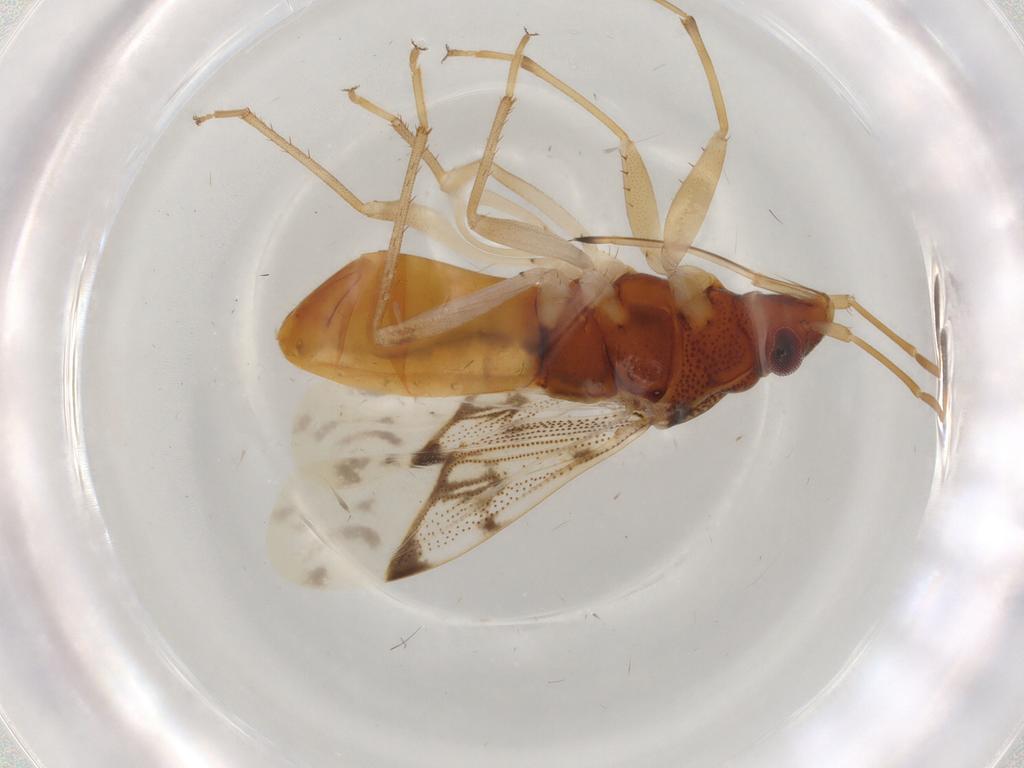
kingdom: Animalia
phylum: Arthropoda
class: Insecta
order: Hemiptera
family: Rhyparochromidae
